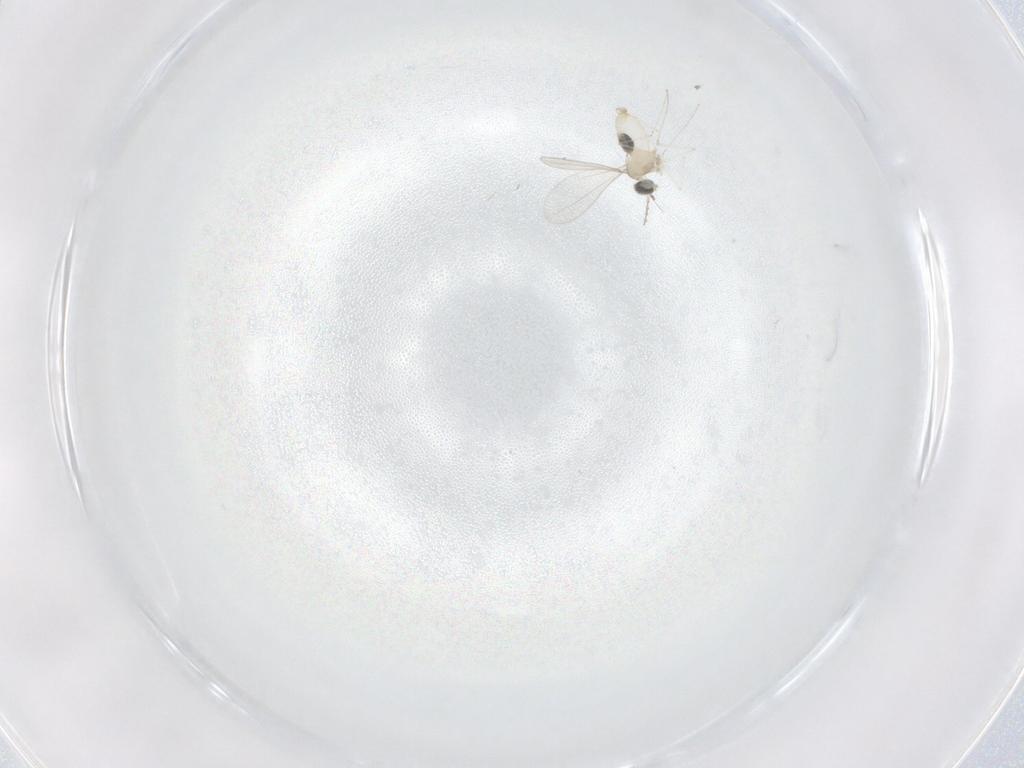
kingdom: Animalia
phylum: Arthropoda
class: Insecta
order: Diptera
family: Cecidomyiidae
